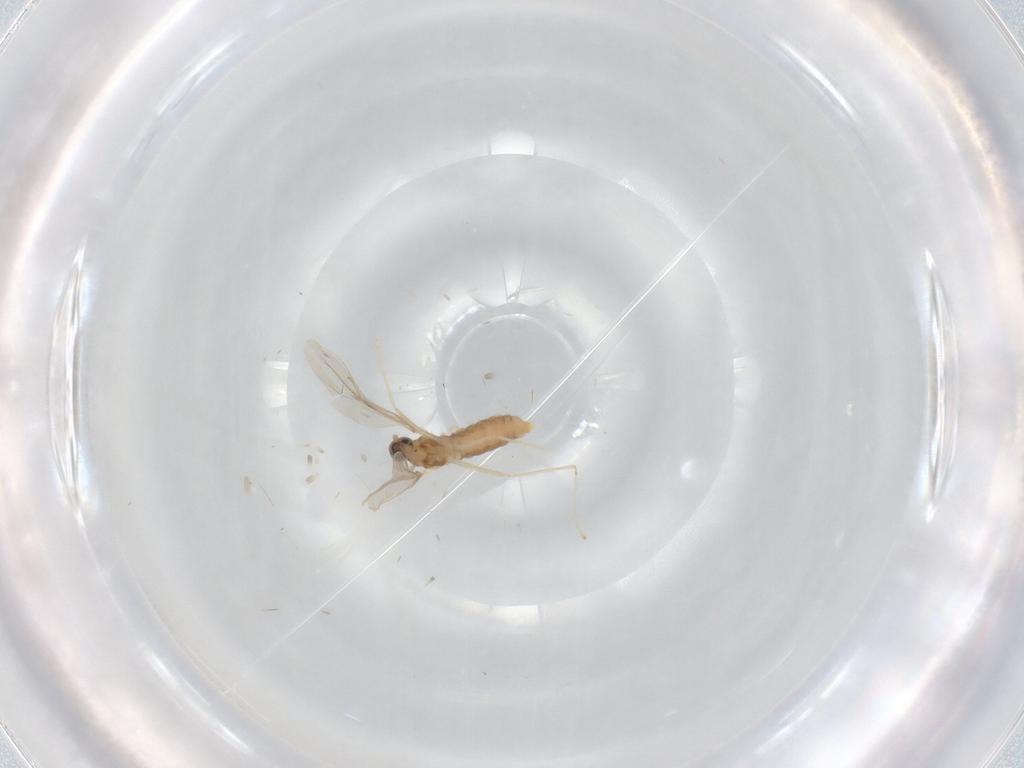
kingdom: Animalia
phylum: Arthropoda
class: Insecta
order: Diptera
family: Cecidomyiidae
